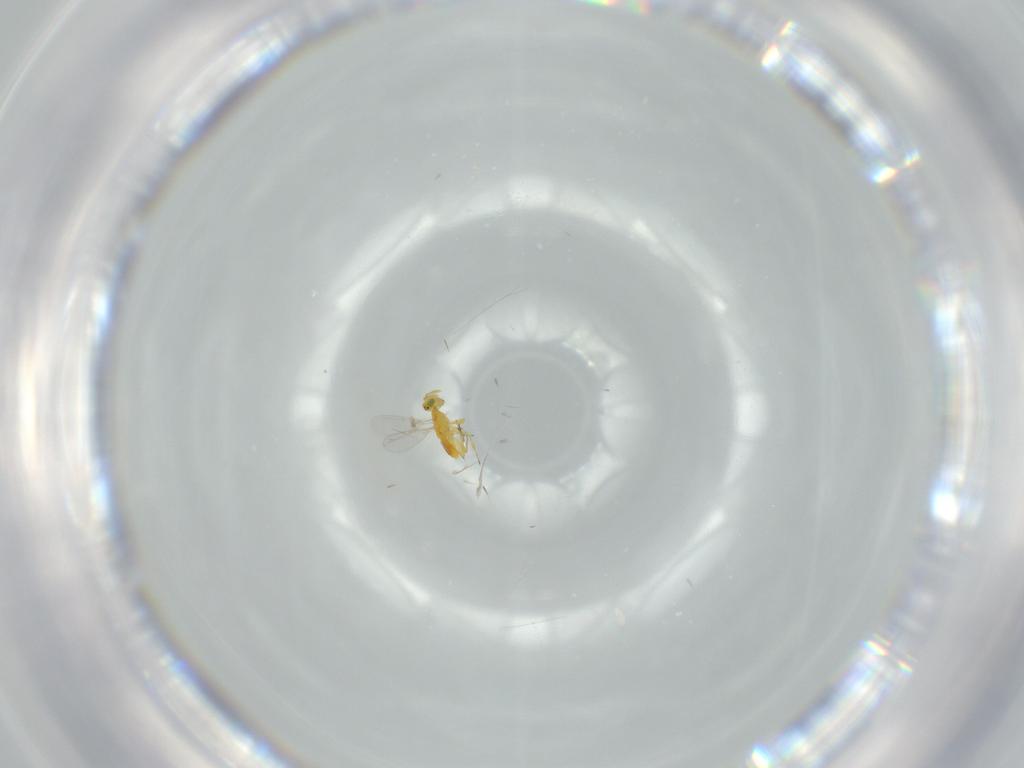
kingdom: Animalia
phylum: Arthropoda
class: Insecta
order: Hymenoptera
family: Aphelinidae
